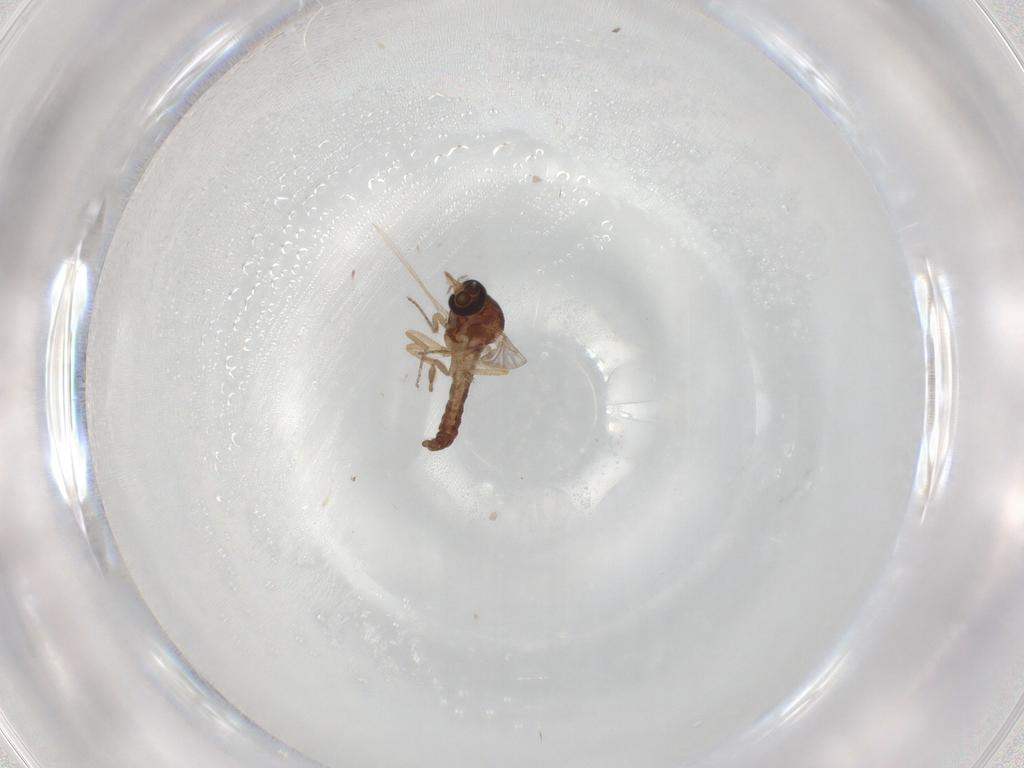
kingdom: Animalia
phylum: Arthropoda
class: Insecta
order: Diptera
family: Ceratopogonidae
